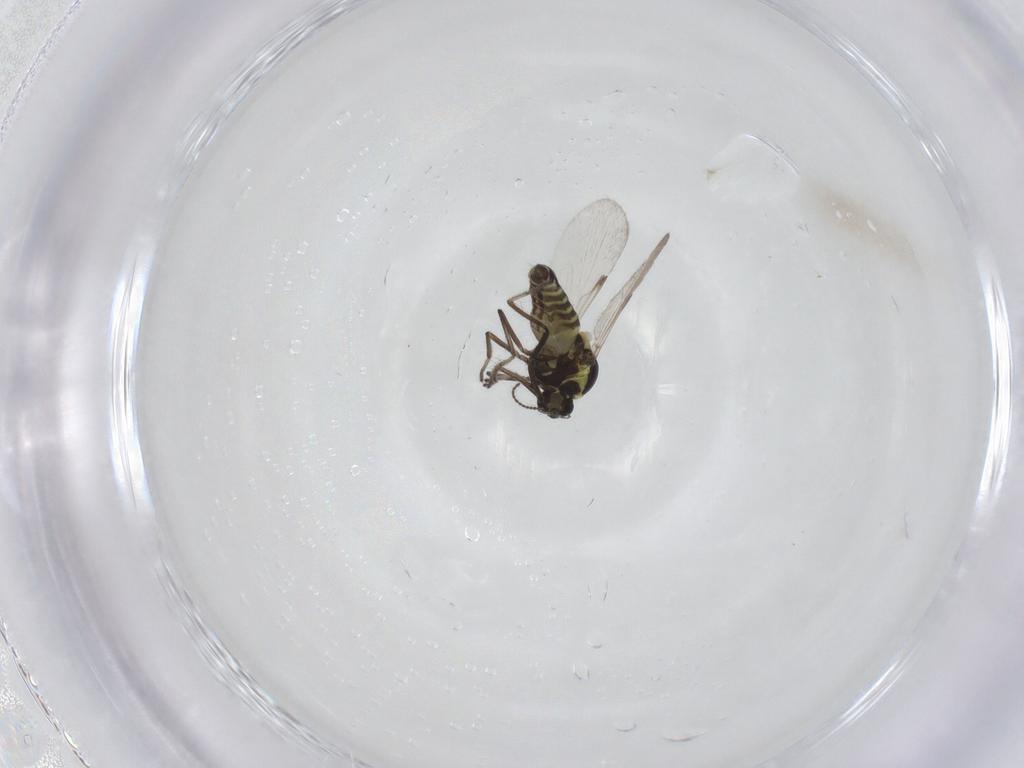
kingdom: Animalia
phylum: Arthropoda
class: Insecta
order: Diptera
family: Ceratopogonidae
